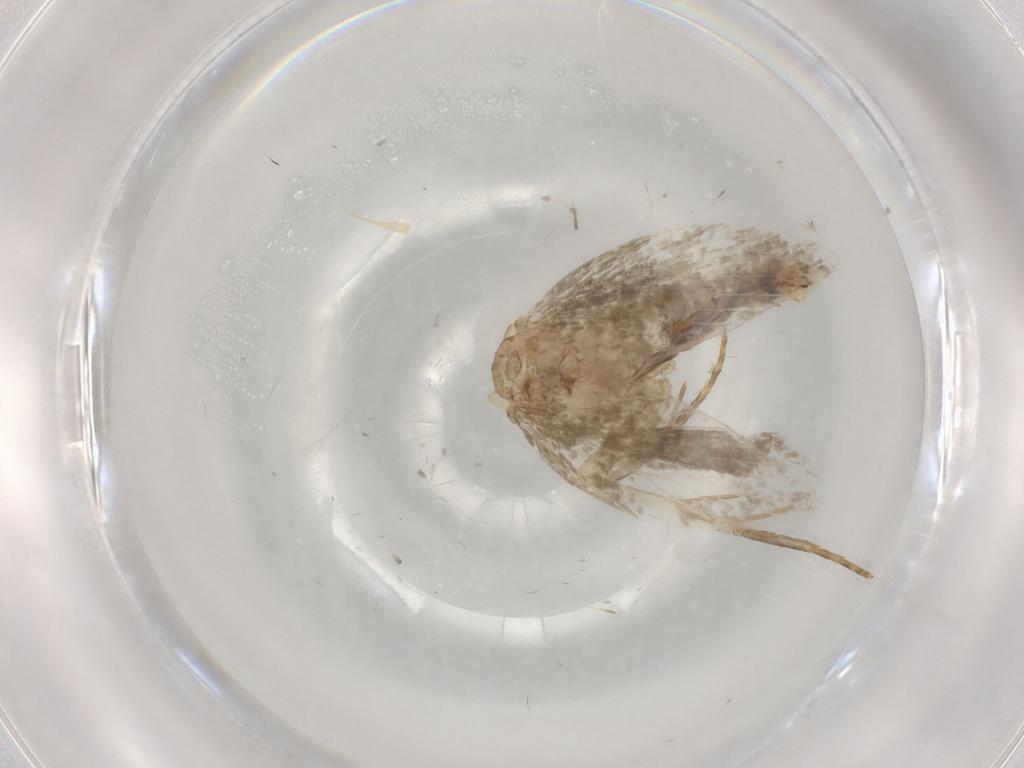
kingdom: Animalia
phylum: Arthropoda
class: Insecta
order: Lepidoptera
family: Gelechiidae
